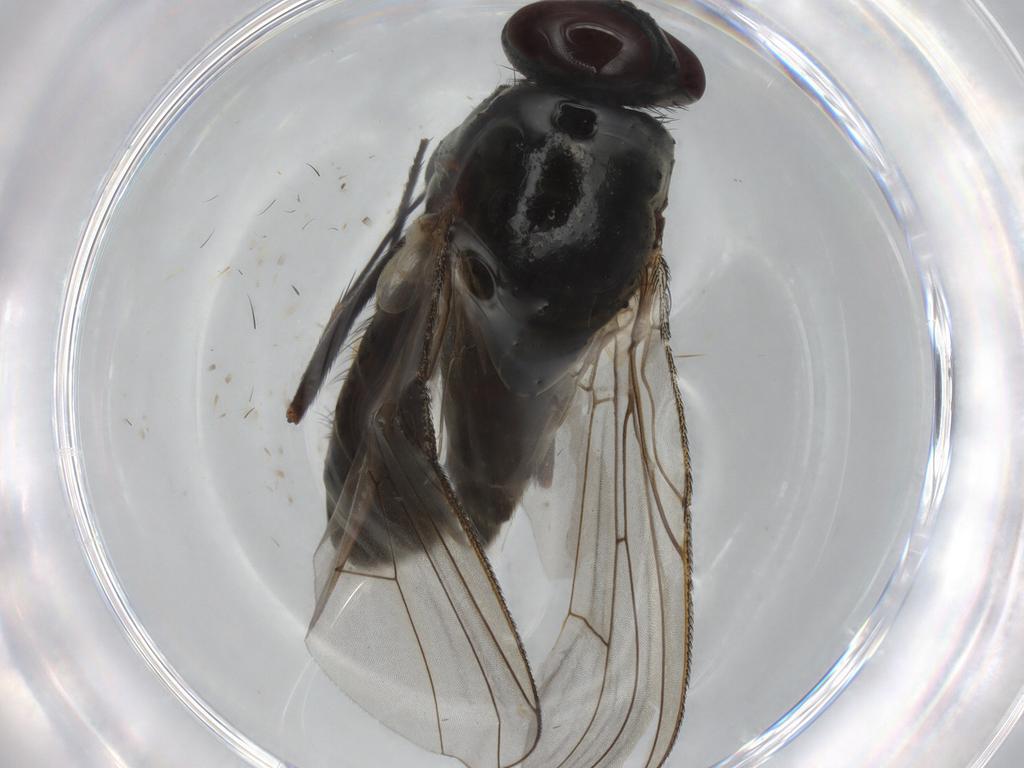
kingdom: Animalia
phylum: Arthropoda
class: Insecta
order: Diptera
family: Muscidae
